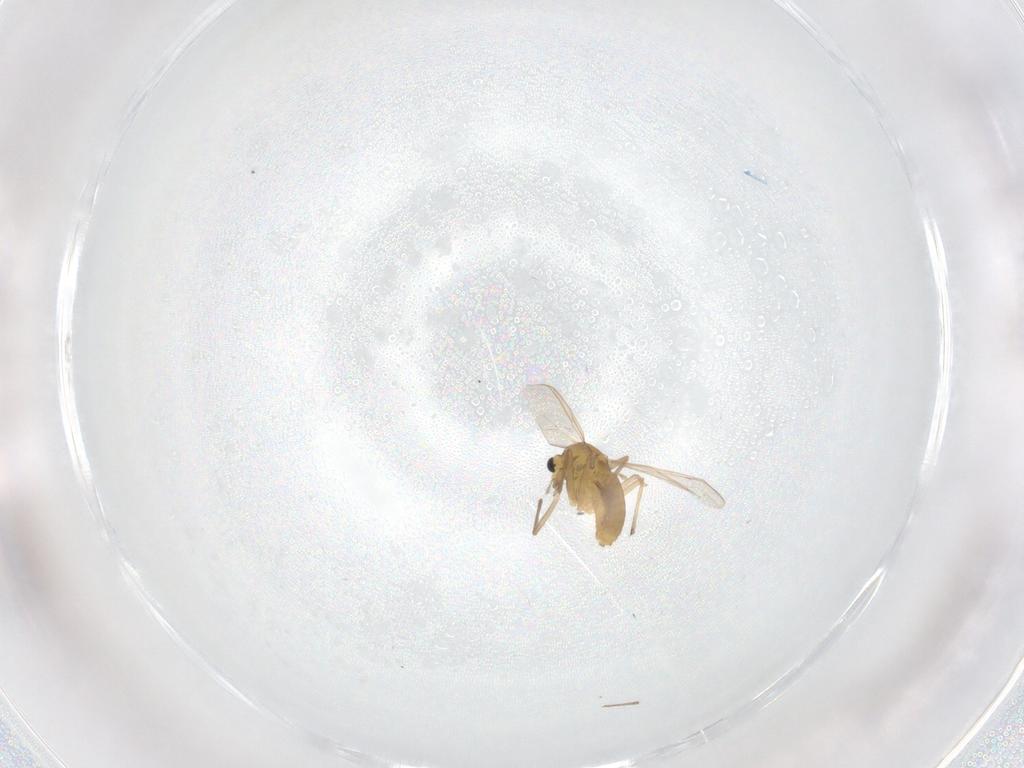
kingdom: Animalia
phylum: Arthropoda
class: Insecta
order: Diptera
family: Chironomidae
